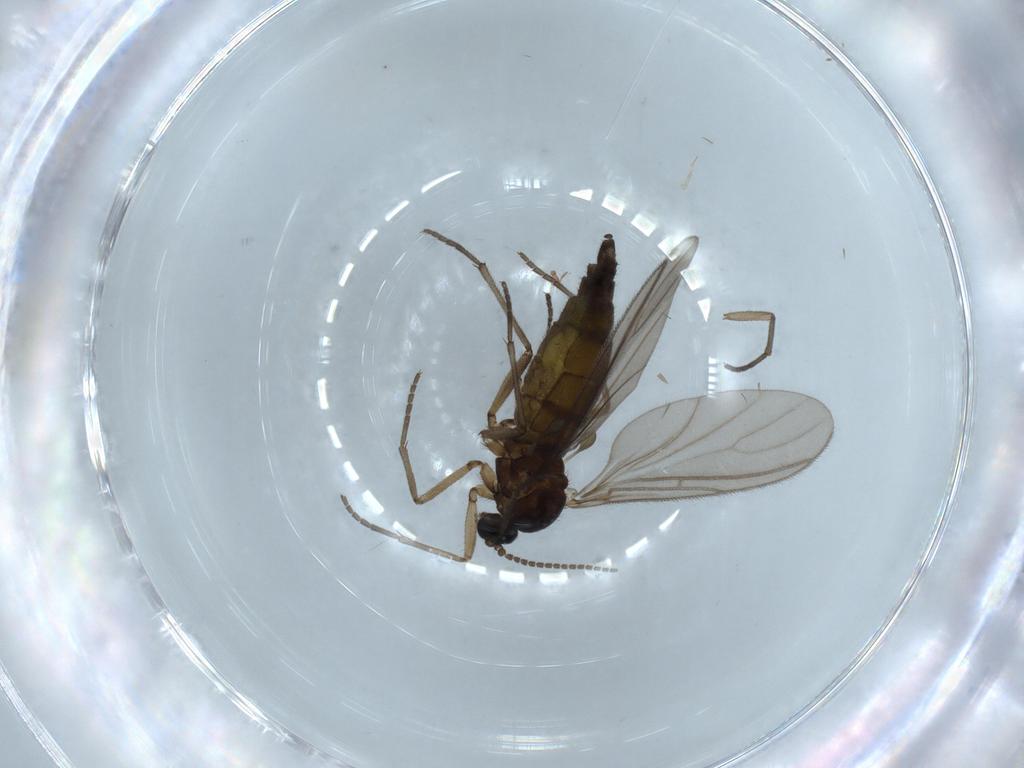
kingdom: Animalia
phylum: Arthropoda
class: Insecta
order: Diptera
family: Sciaridae
